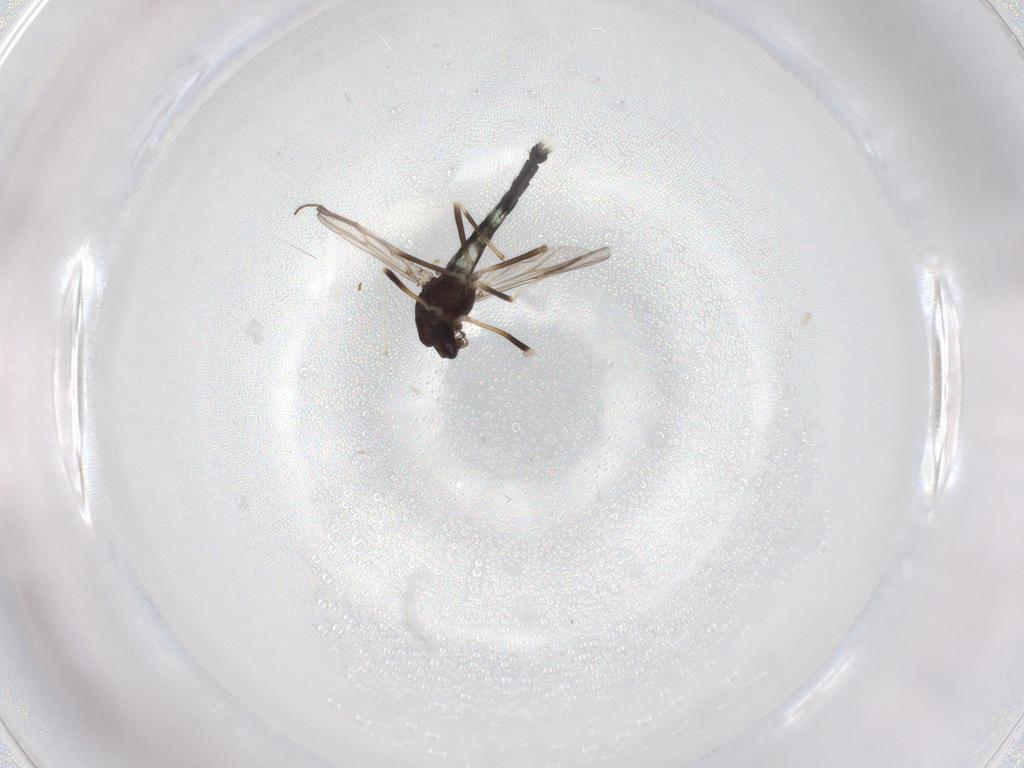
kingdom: Animalia
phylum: Arthropoda
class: Insecta
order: Diptera
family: Chironomidae
